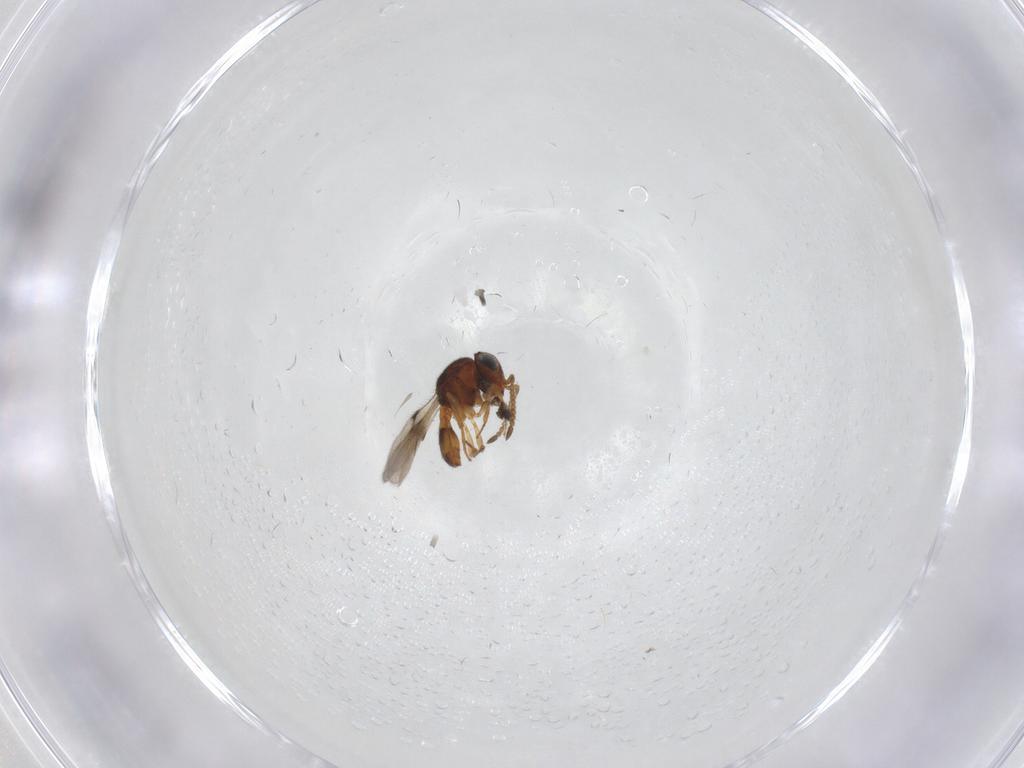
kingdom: Animalia
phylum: Arthropoda
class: Insecta
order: Hymenoptera
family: Scelionidae
